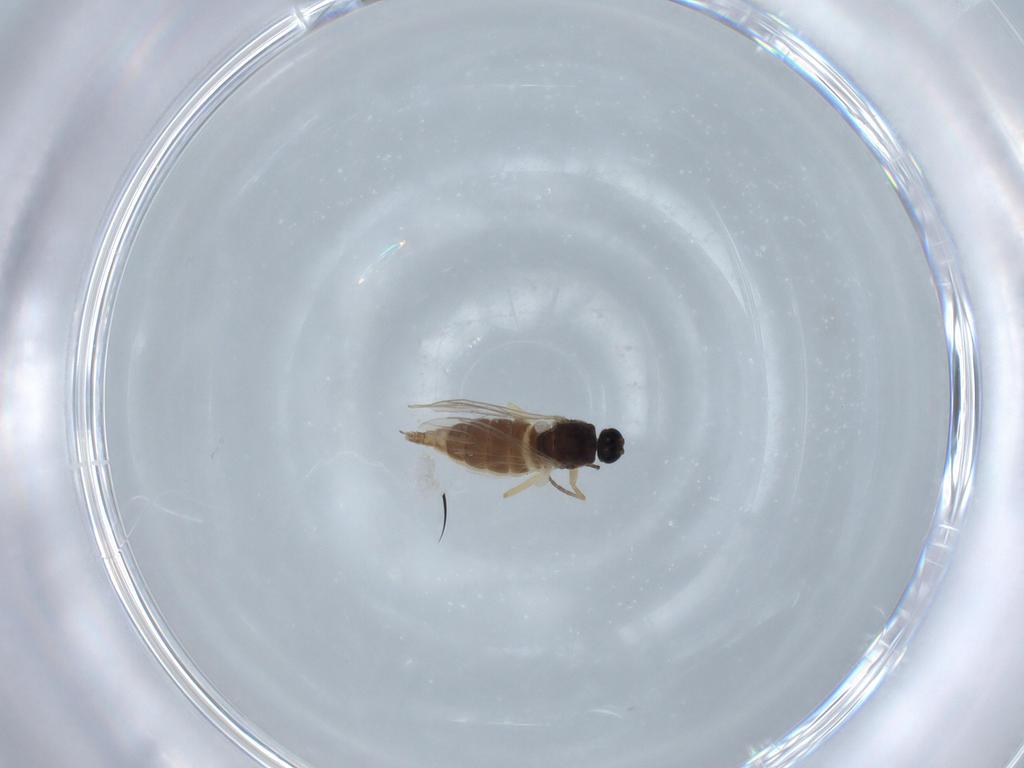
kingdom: Animalia
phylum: Arthropoda
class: Insecta
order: Diptera
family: Sciaridae
